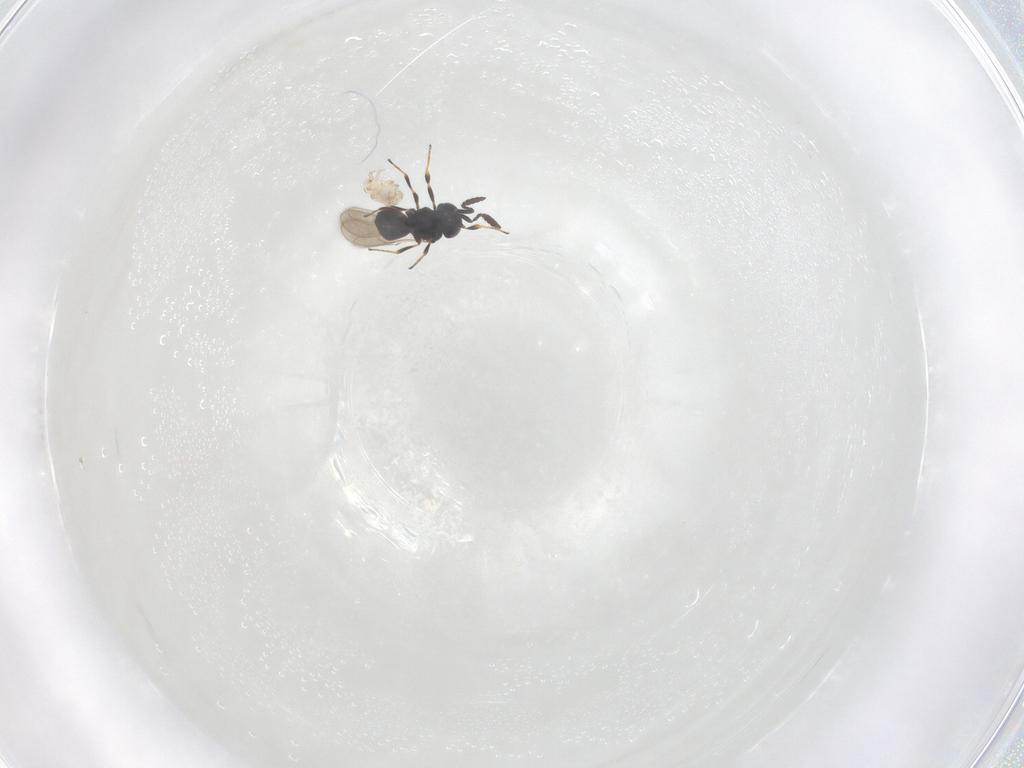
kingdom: Animalia
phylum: Arthropoda
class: Insecta
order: Hymenoptera
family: Scelionidae
